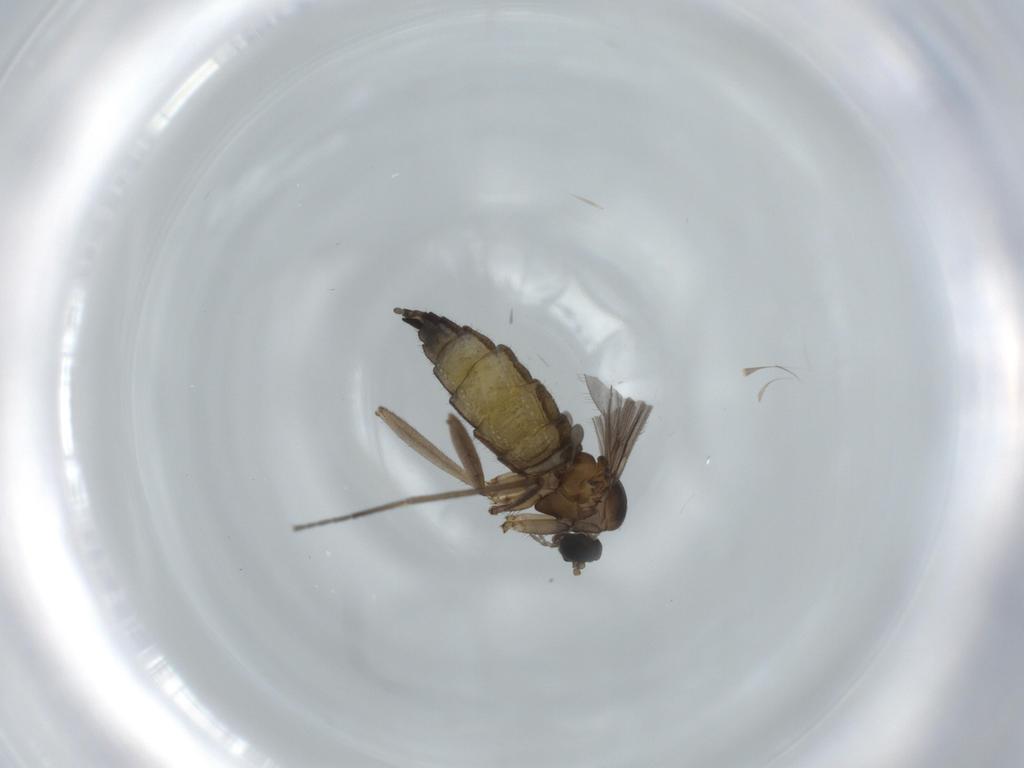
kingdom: Animalia
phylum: Arthropoda
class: Insecta
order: Diptera
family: Sciaridae
